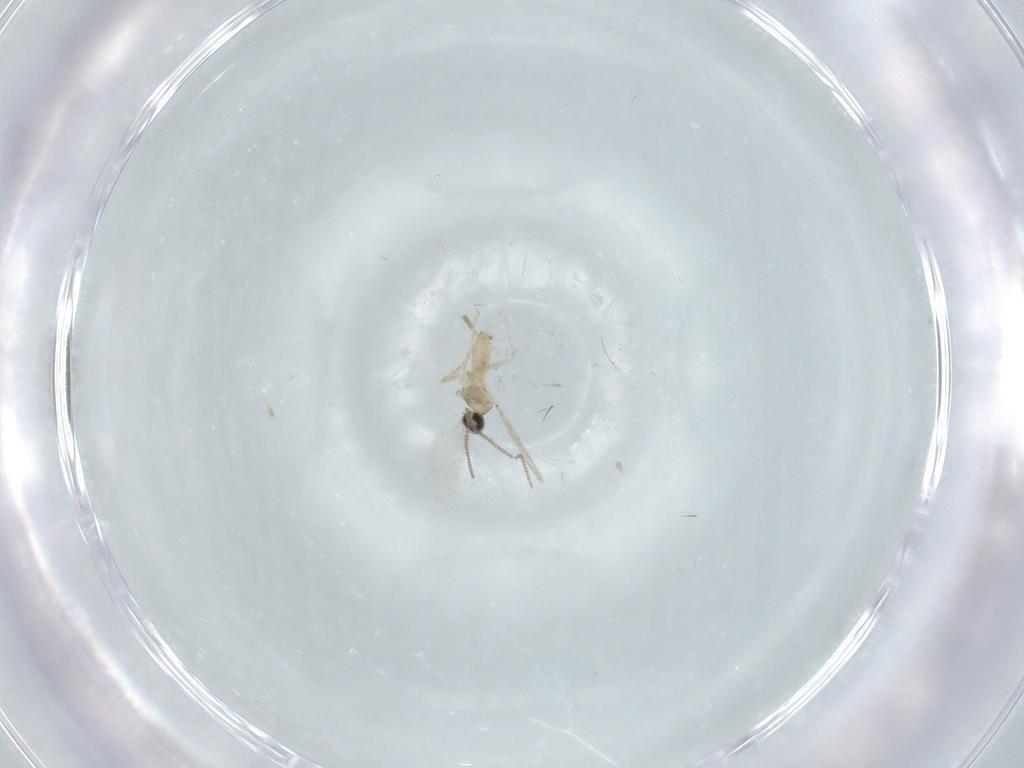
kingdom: Animalia
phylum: Arthropoda
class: Insecta
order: Diptera
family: Cecidomyiidae
